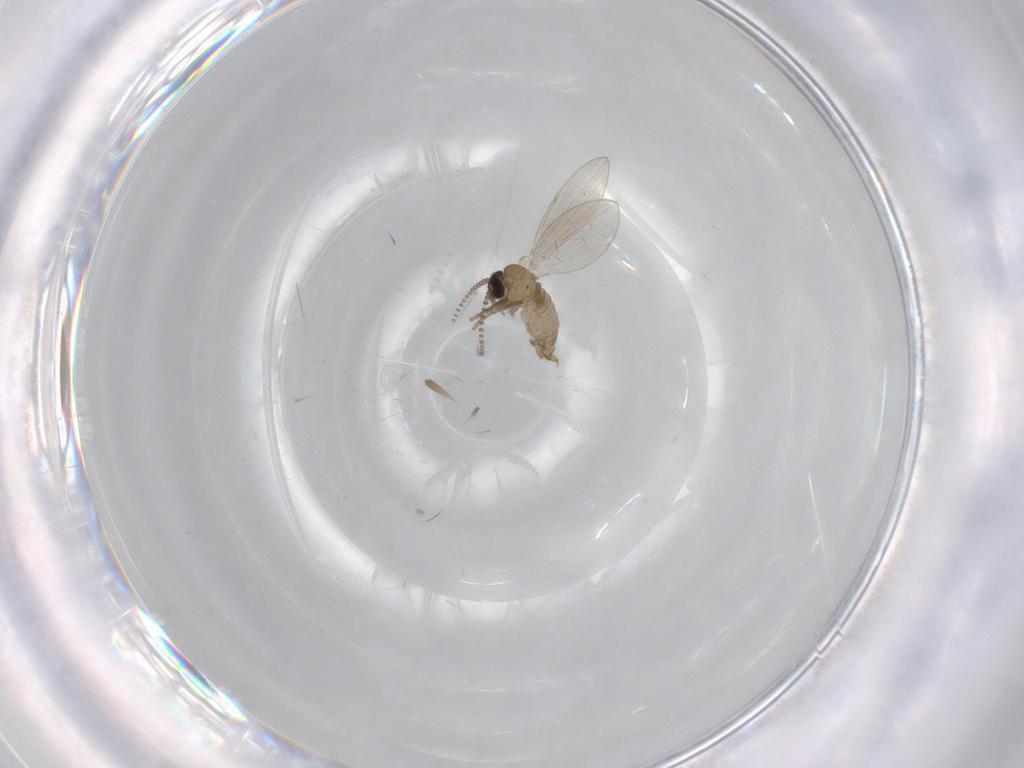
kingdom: Animalia
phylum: Arthropoda
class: Insecta
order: Diptera
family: Psychodidae
